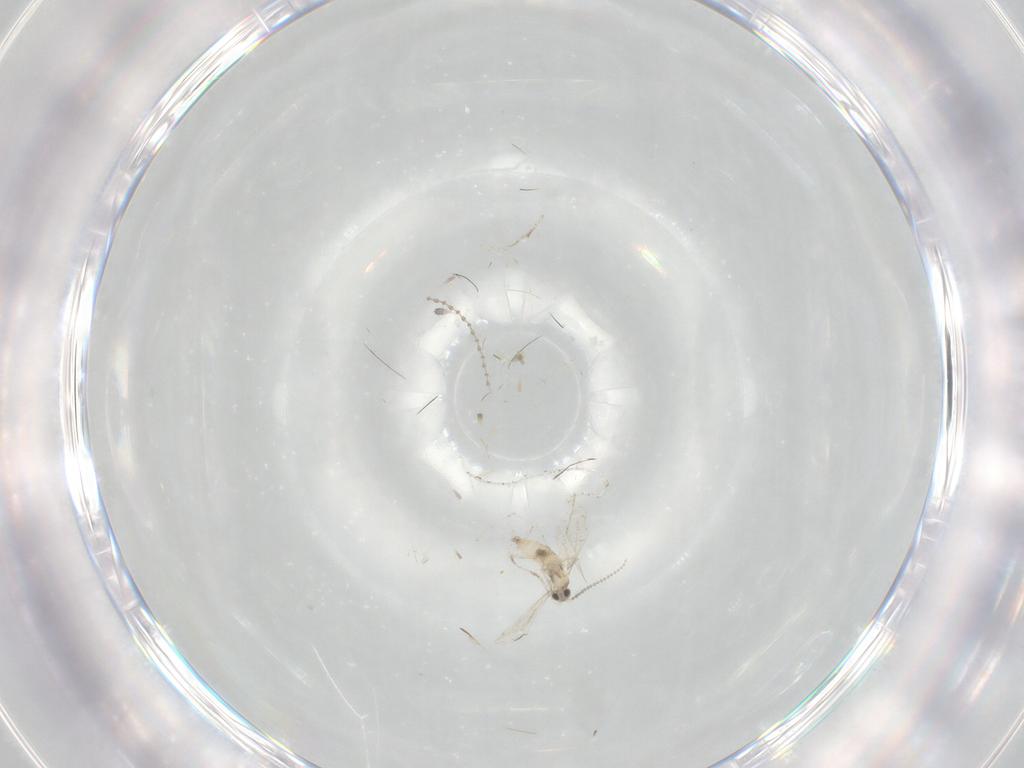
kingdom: Animalia
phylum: Arthropoda
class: Insecta
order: Diptera
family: Cecidomyiidae
